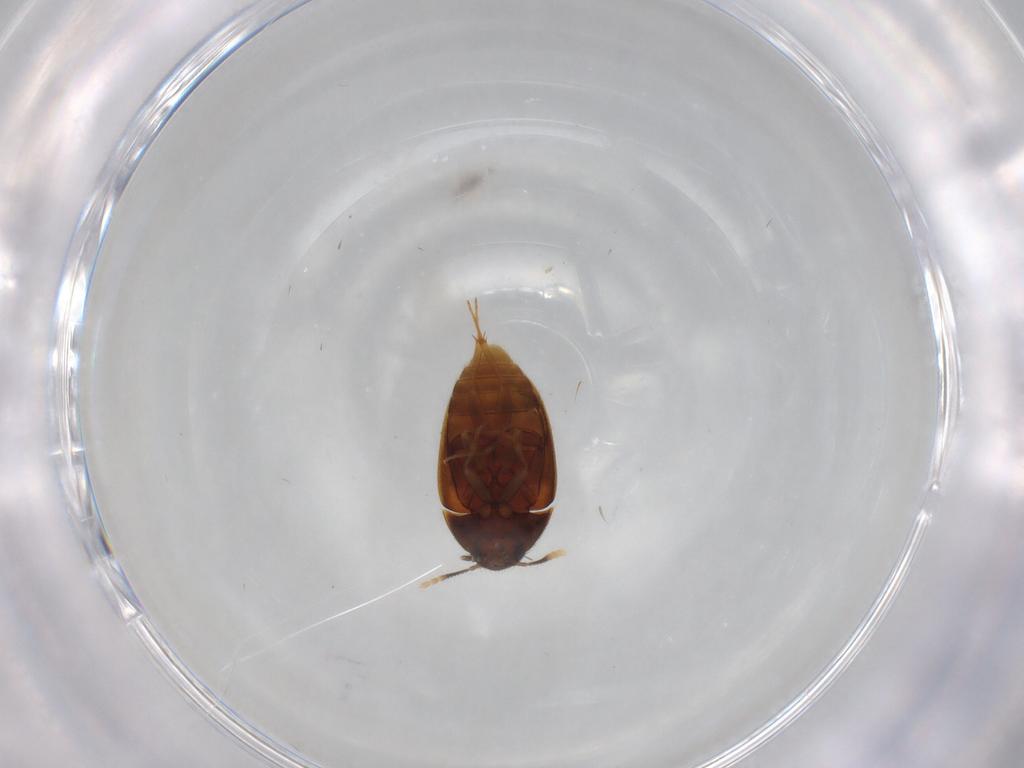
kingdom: Animalia
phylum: Arthropoda
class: Insecta
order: Coleoptera
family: Mycetophagidae
